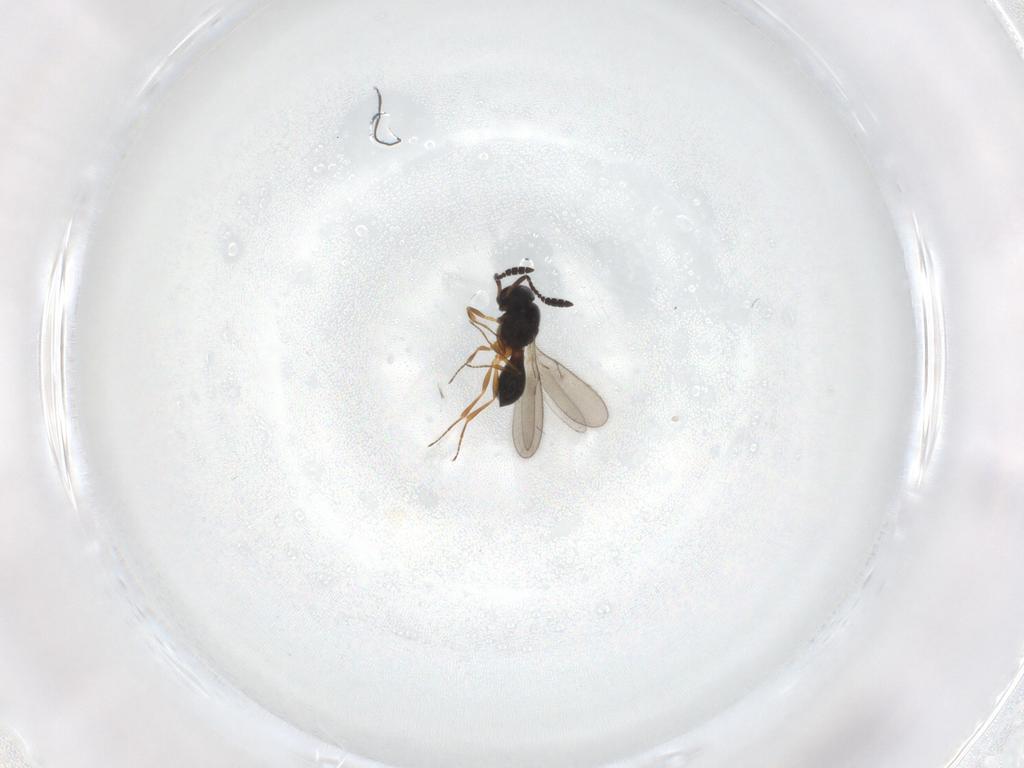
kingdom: Animalia
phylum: Arthropoda
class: Insecta
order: Hymenoptera
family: Scelionidae
